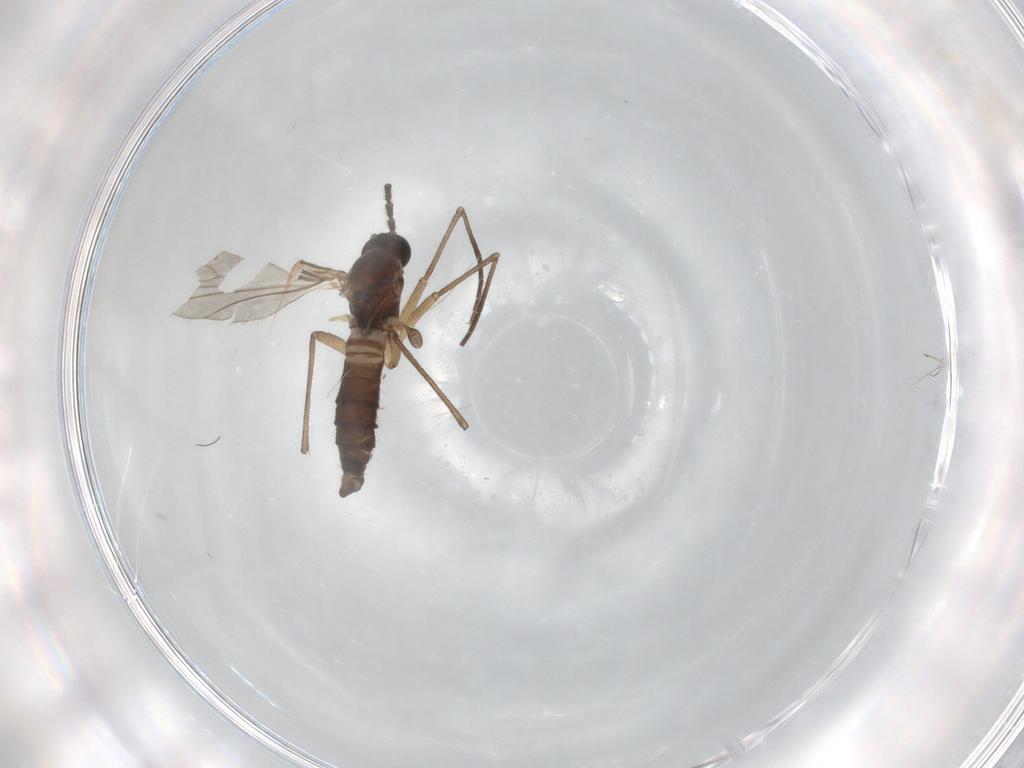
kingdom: Animalia
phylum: Arthropoda
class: Insecta
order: Diptera
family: Sciaridae
